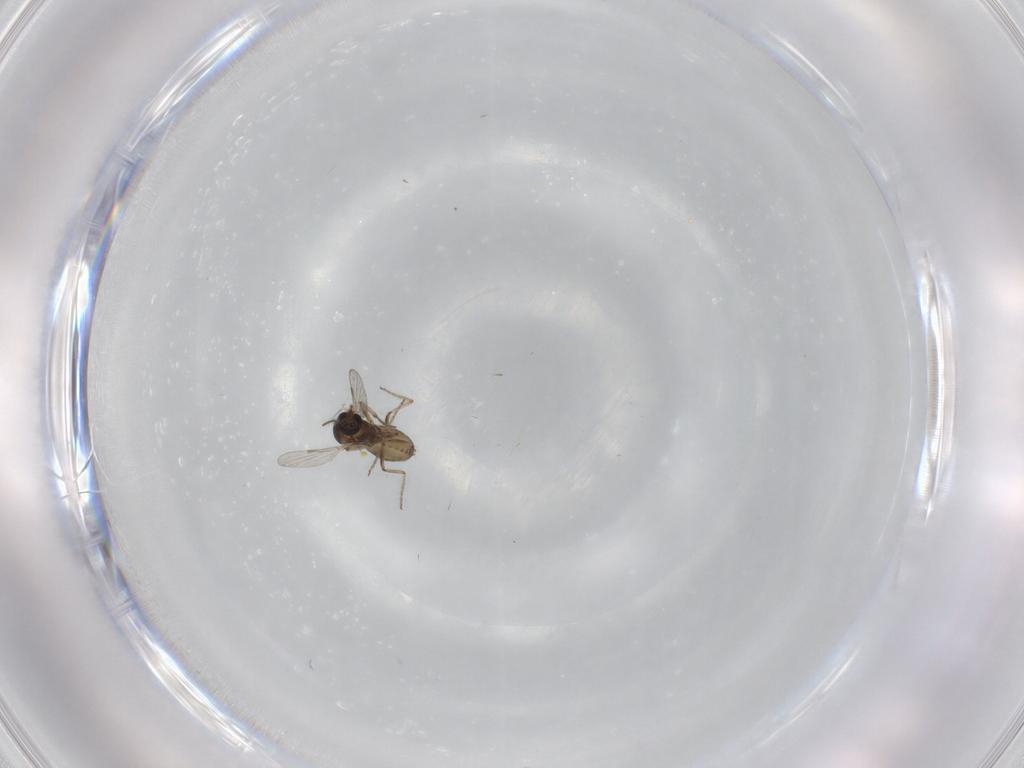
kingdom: Animalia
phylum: Arthropoda
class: Insecta
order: Diptera
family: Ceratopogonidae
